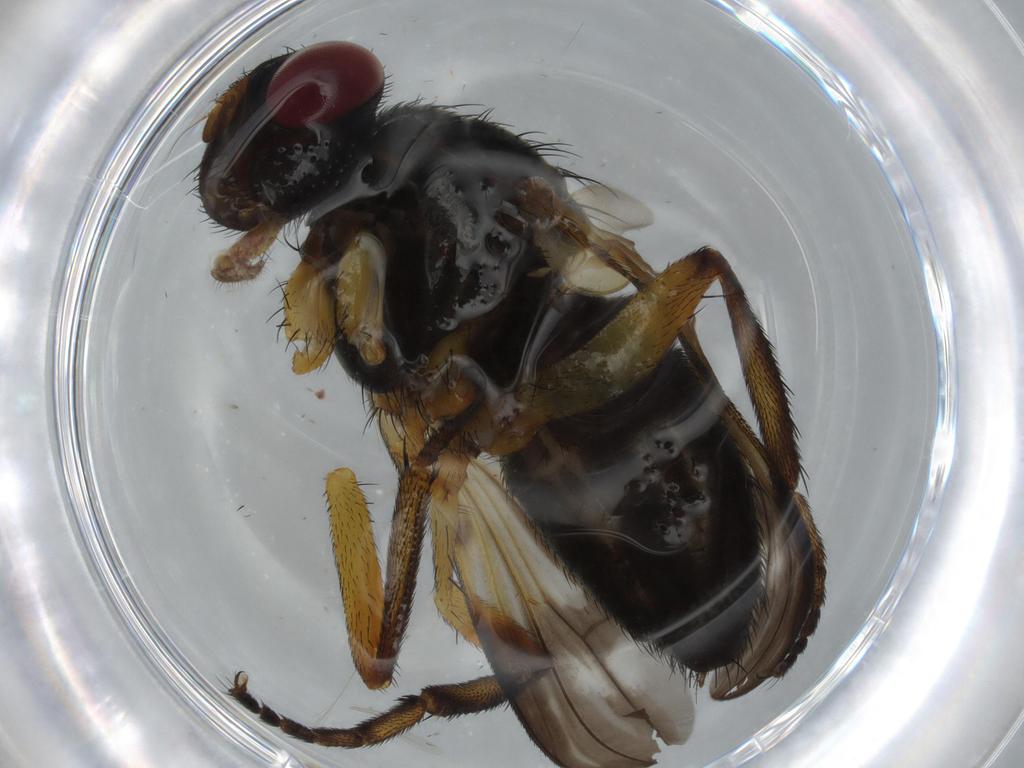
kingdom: Animalia
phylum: Arthropoda
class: Insecta
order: Diptera
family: Calliphoridae
